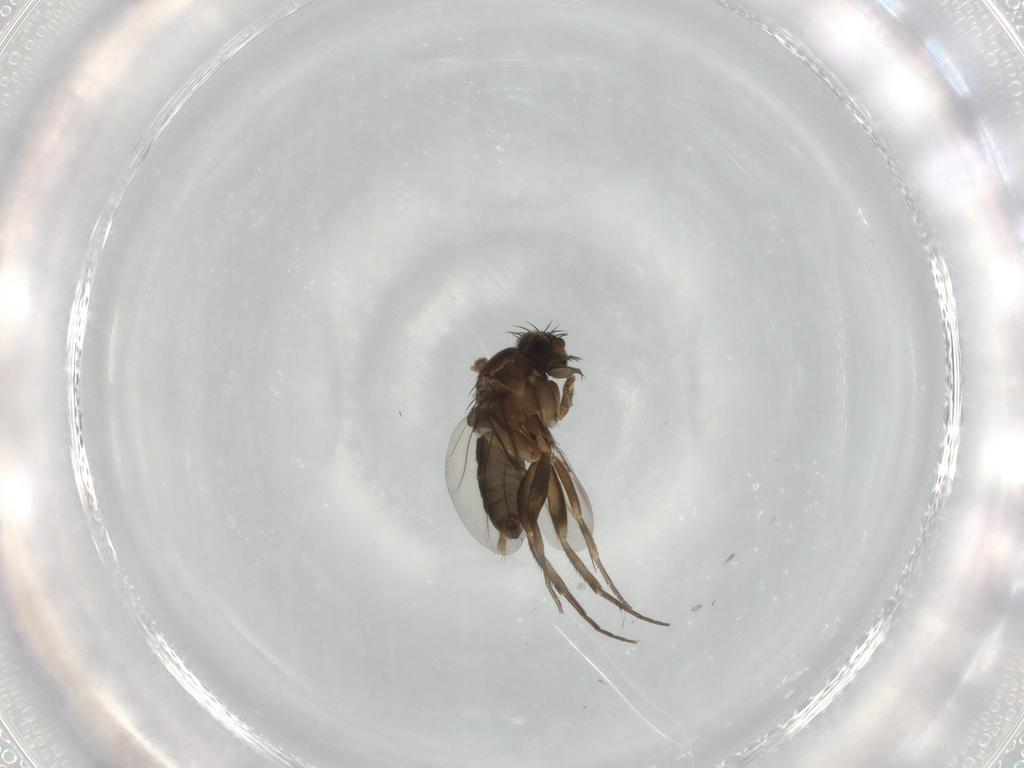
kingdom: Animalia
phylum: Arthropoda
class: Insecta
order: Diptera
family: Phoridae
